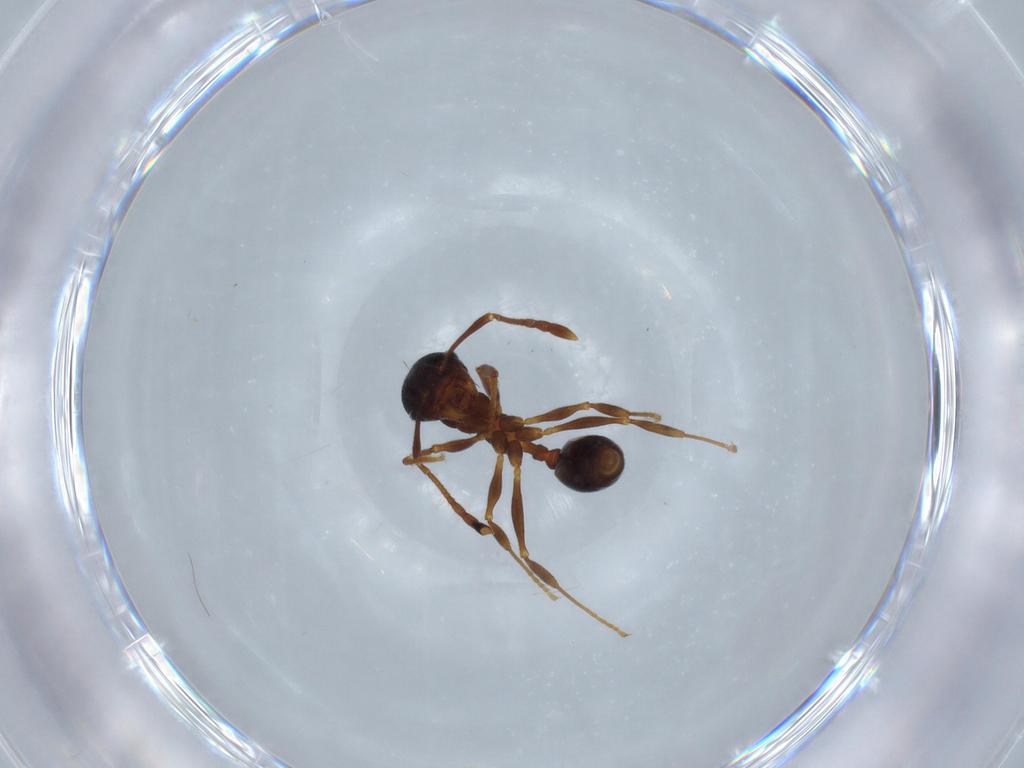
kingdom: Animalia
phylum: Arthropoda
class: Insecta
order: Hymenoptera
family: Formicidae
